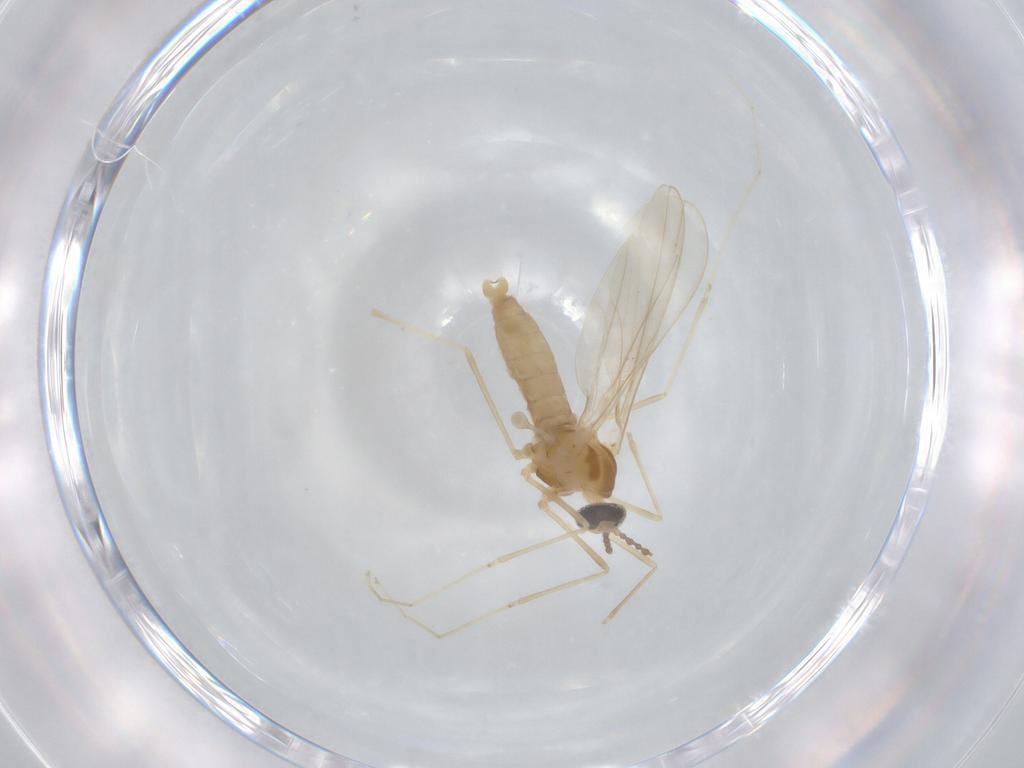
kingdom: Animalia
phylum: Arthropoda
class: Insecta
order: Diptera
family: Cecidomyiidae
